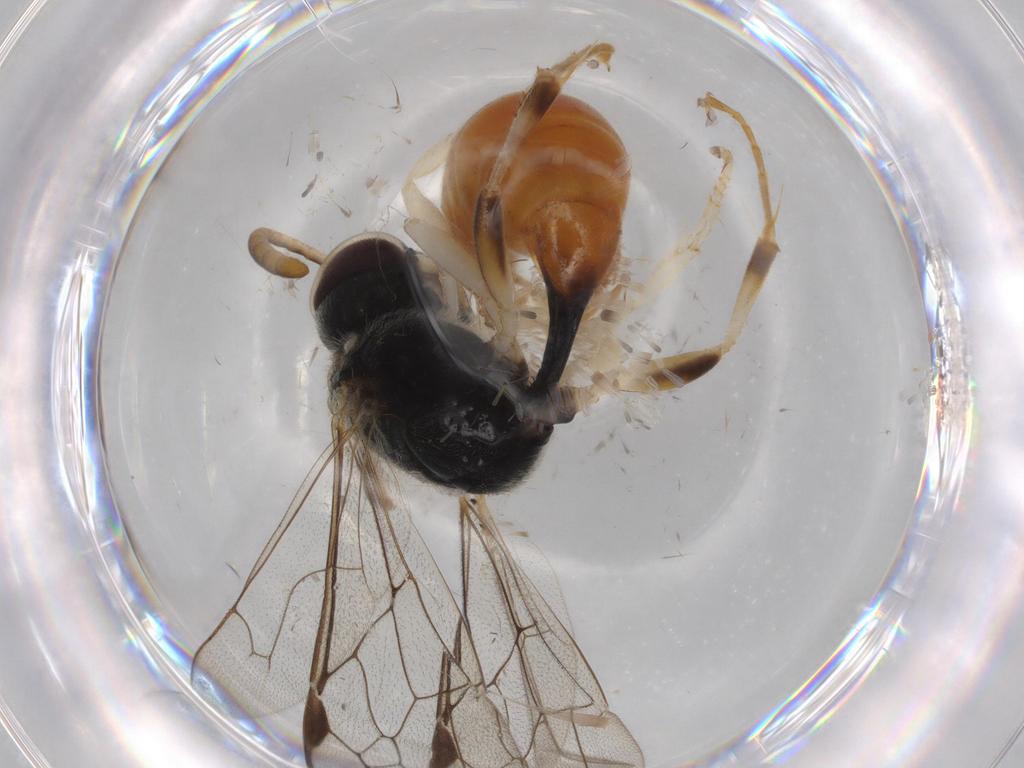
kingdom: Animalia
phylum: Arthropoda
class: Insecta
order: Hymenoptera
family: Crabronidae
